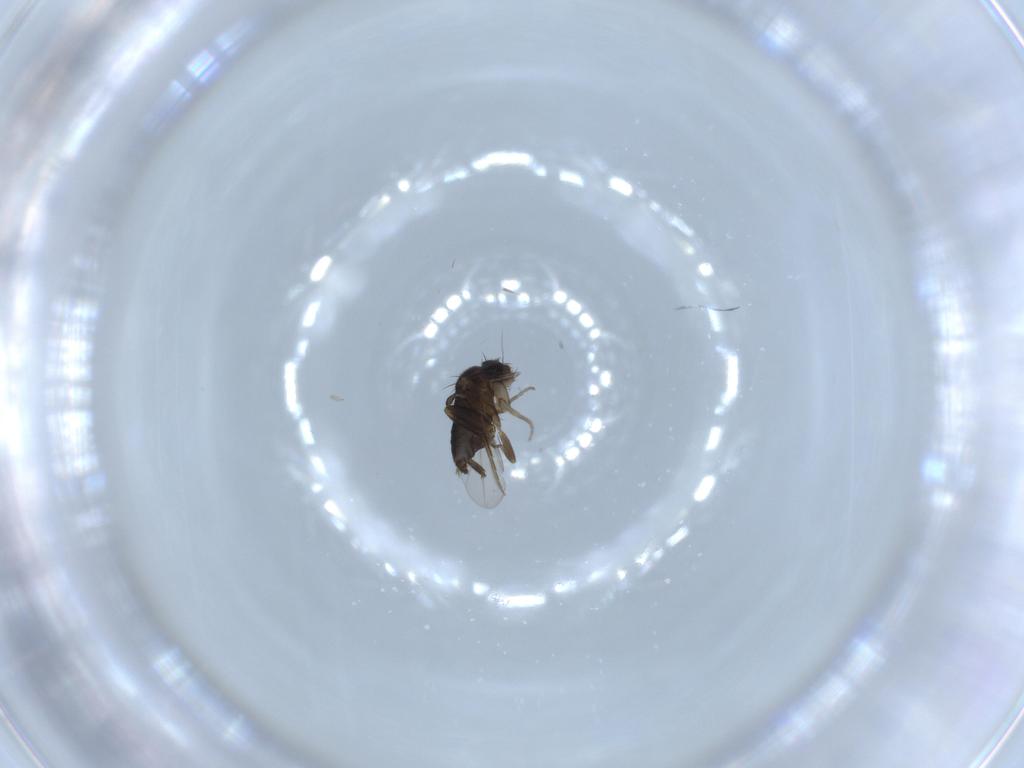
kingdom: Animalia
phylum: Arthropoda
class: Insecta
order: Diptera
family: Phoridae
